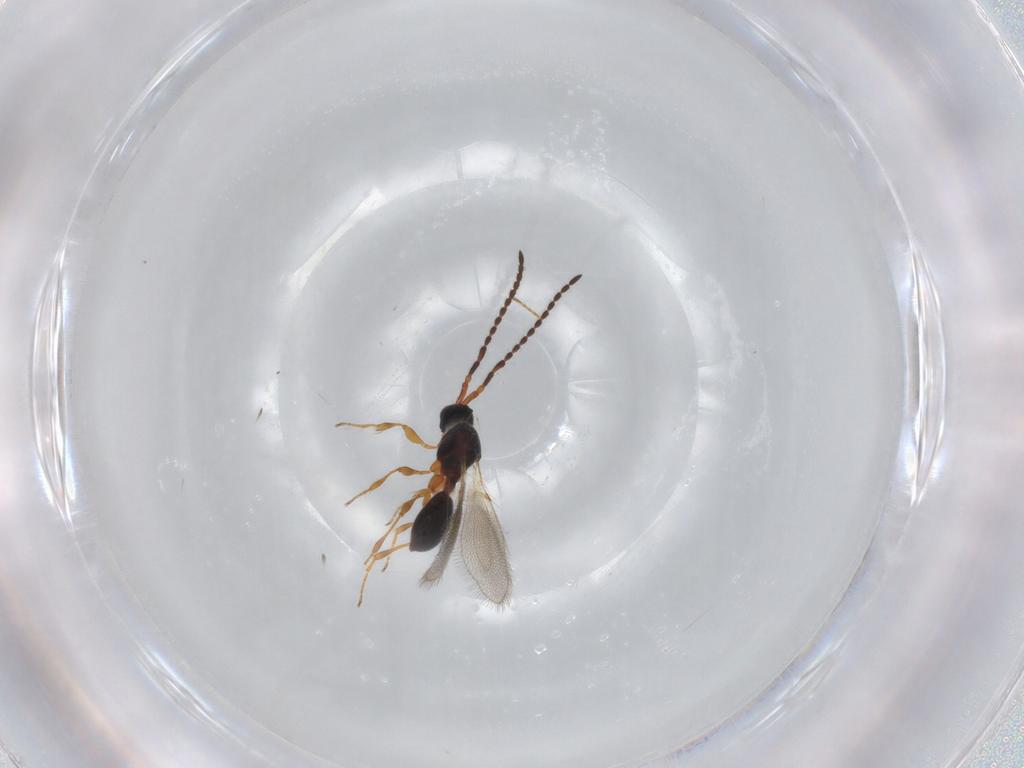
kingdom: Animalia
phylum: Arthropoda
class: Insecta
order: Hymenoptera
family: Diapriidae
